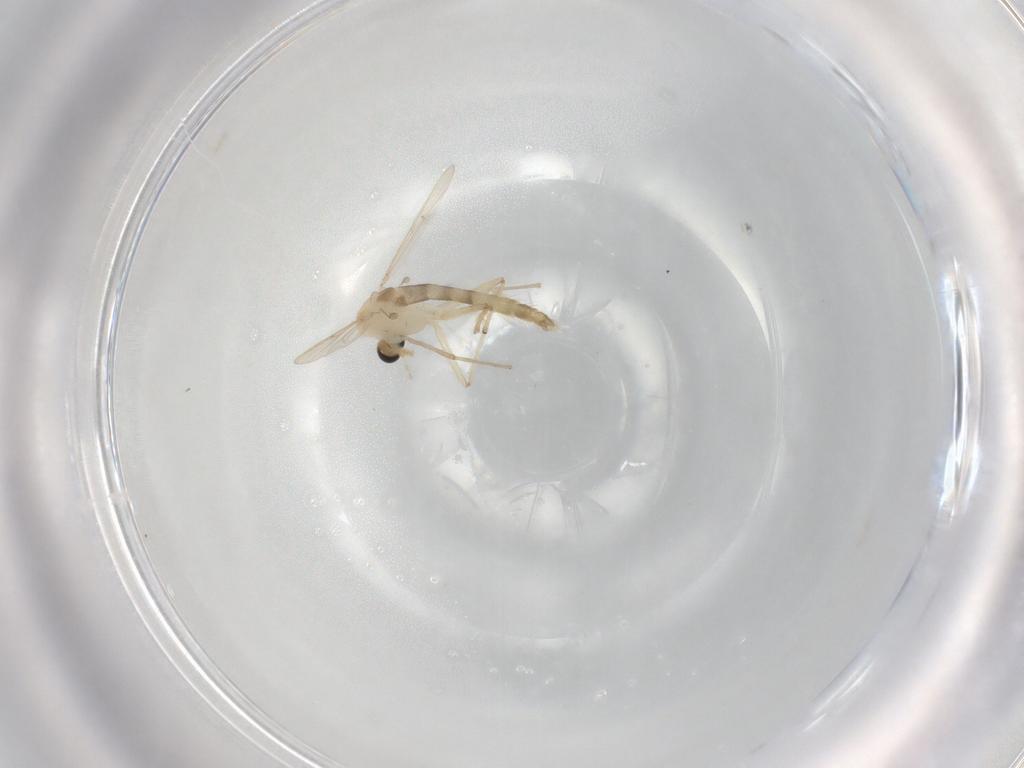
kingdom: Animalia
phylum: Arthropoda
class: Insecta
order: Diptera
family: Chironomidae
